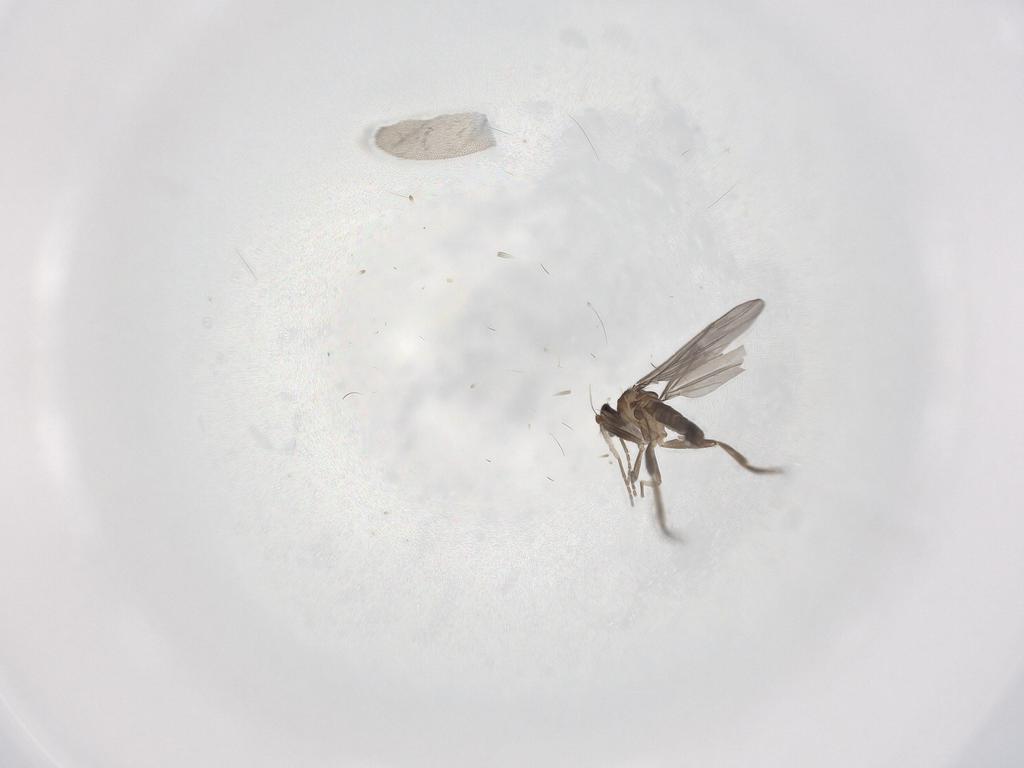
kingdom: Animalia
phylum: Arthropoda
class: Insecta
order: Diptera
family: Phoridae
